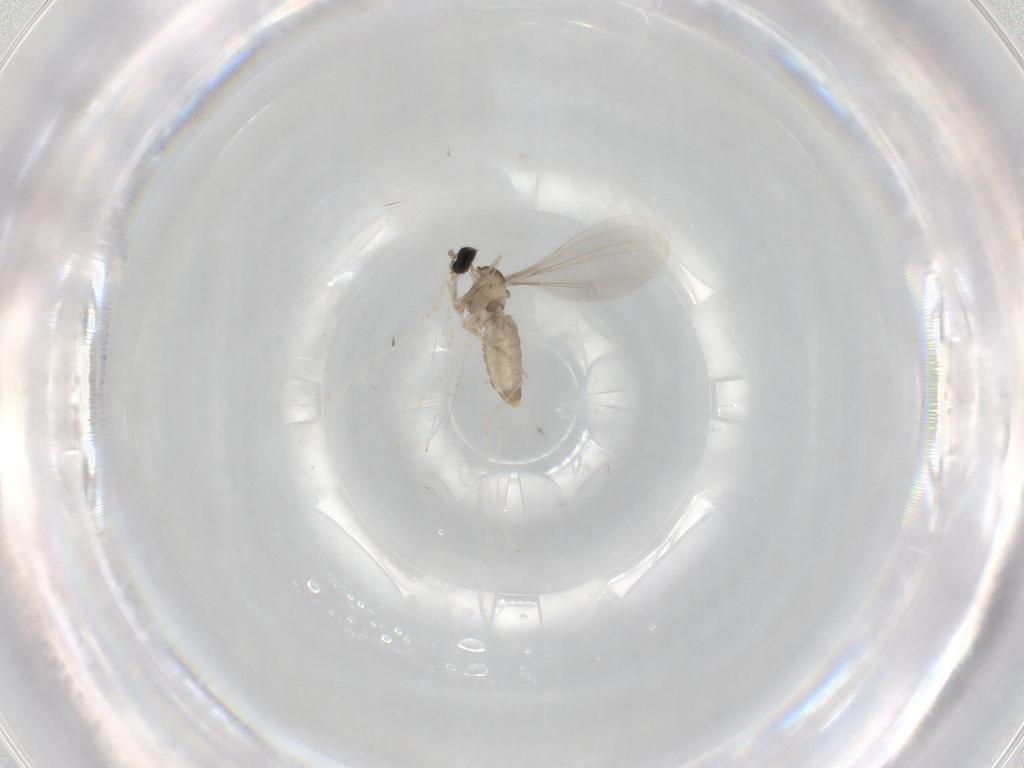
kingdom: Animalia
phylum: Arthropoda
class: Insecta
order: Diptera
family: Cecidomyiidae
